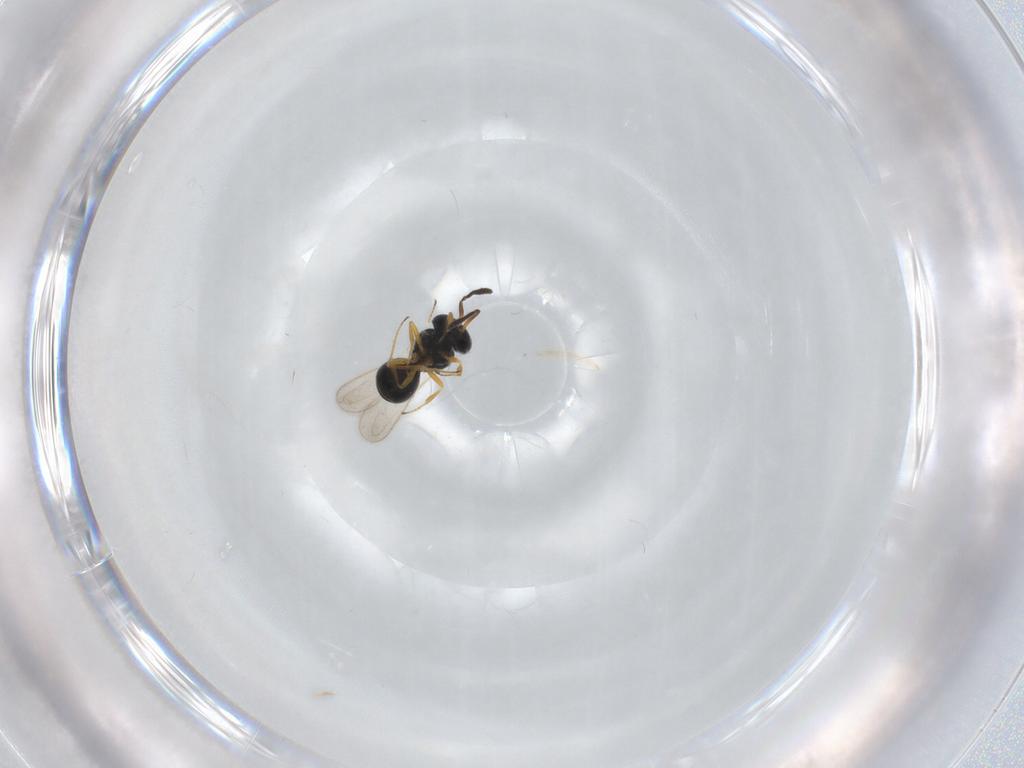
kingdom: Animalia
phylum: Arthropoda
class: Insecta
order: Hymenoptera
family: Scelionidae
